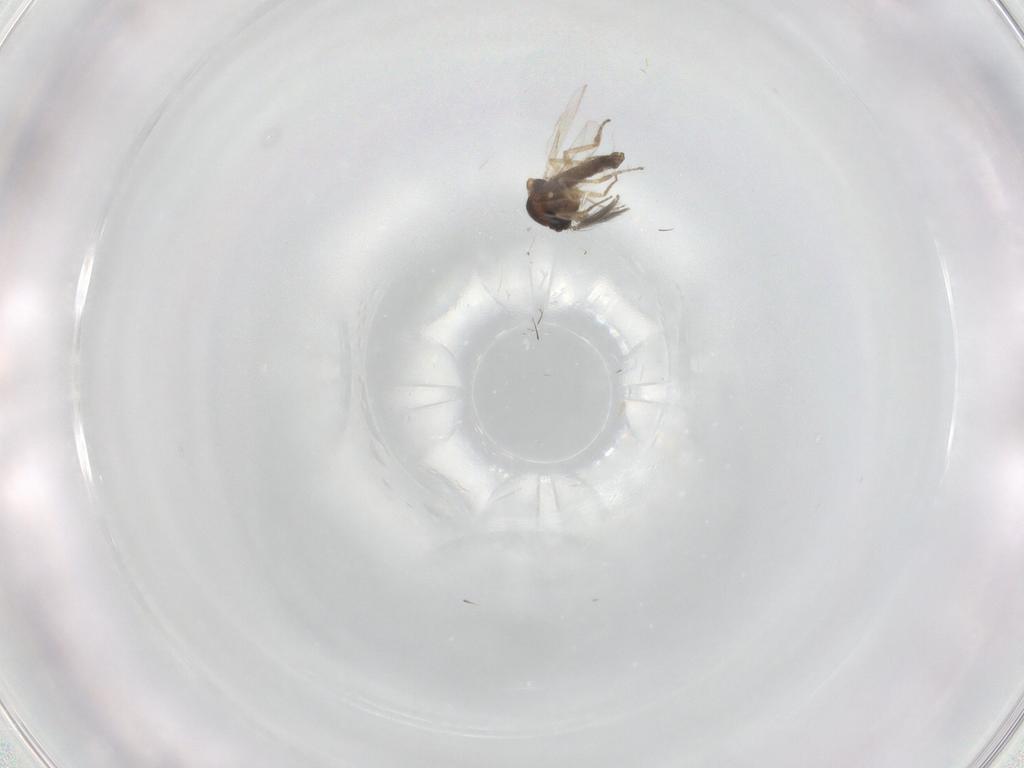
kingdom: Animalia
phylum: Arthropoda
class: Insecta
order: Diptera
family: Ceratopogonidae
